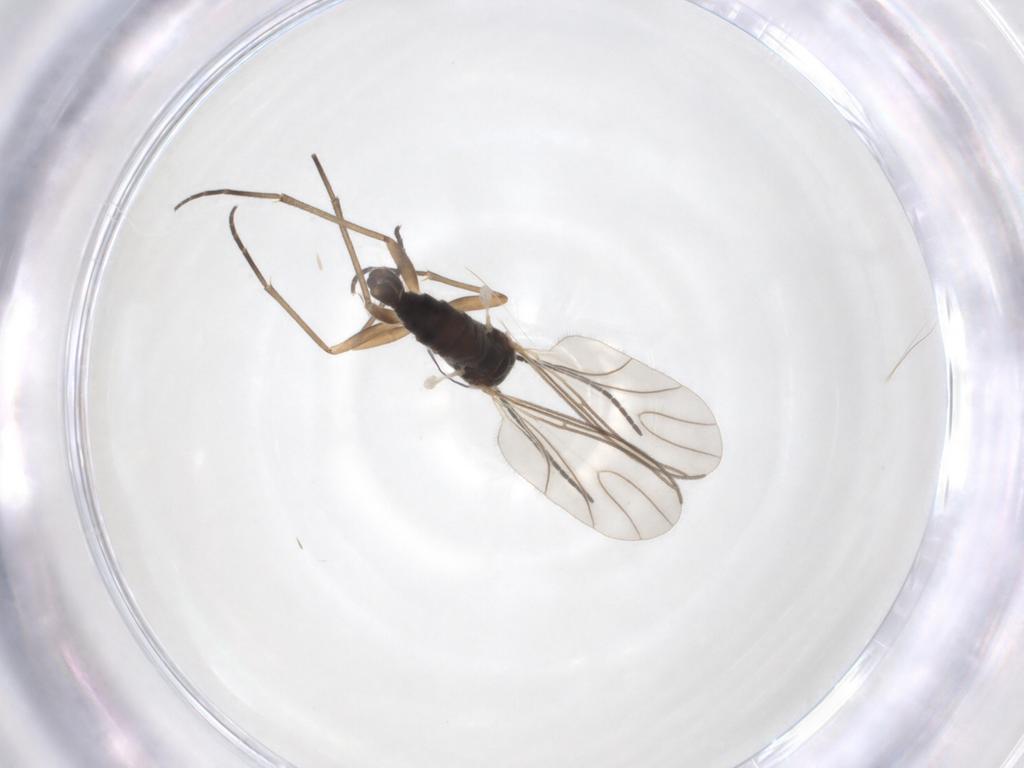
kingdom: Animalia
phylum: Arthropoda
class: Insecta
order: Diptera
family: Sciaridae
